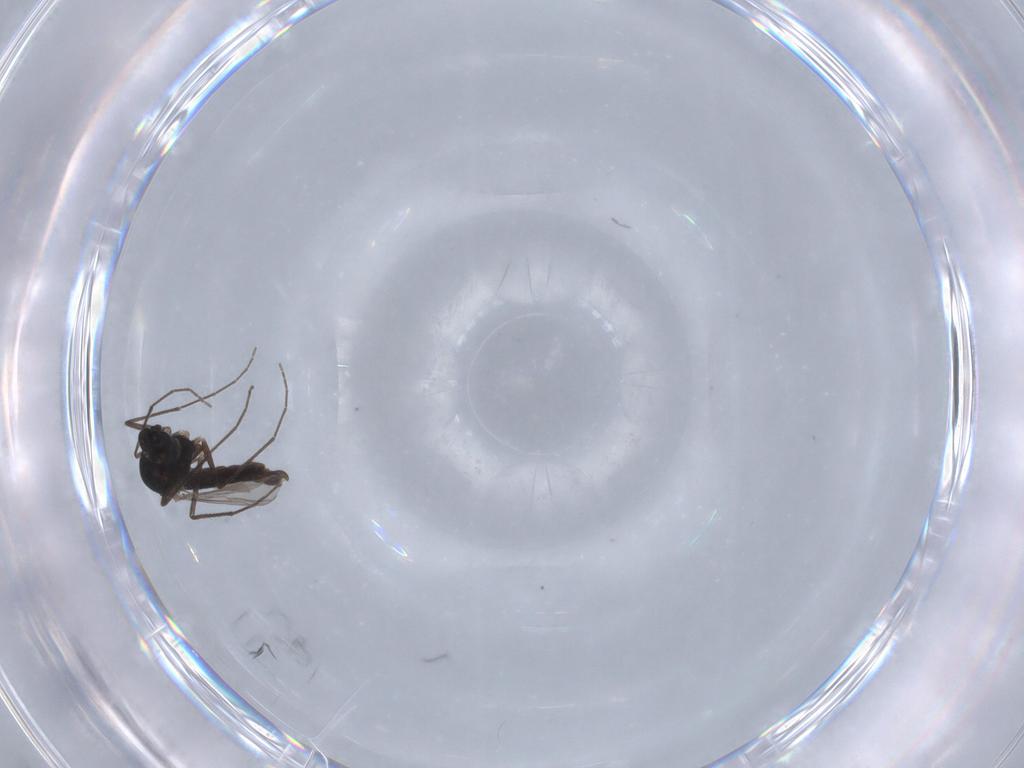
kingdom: Animalia
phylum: Arthropoda
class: Insecta
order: Diptera
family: Chironomidae
